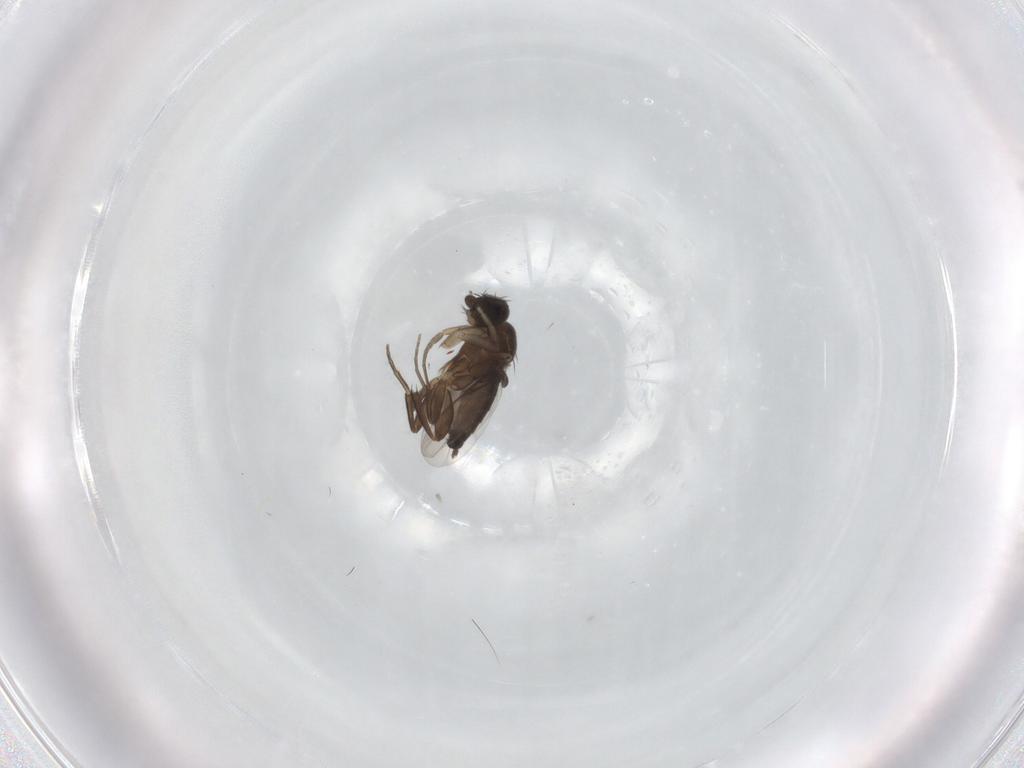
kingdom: Animalia
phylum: Arthropoda
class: Insecta
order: Diptera
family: Phoridae
